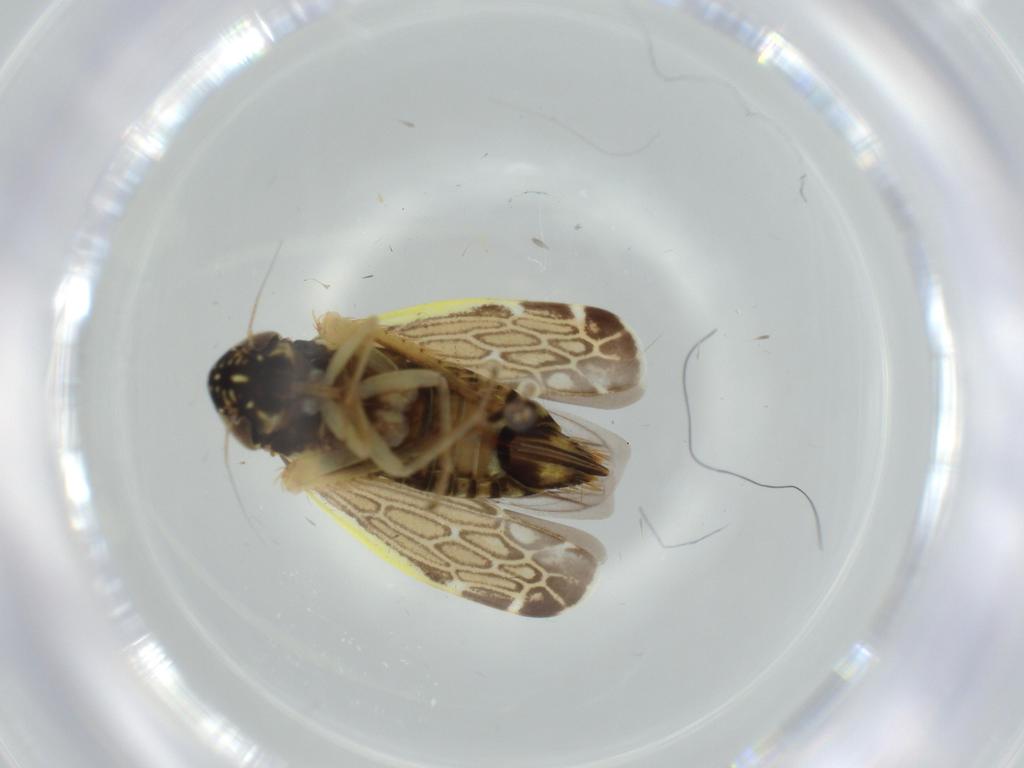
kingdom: Animalia
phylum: Arthropoda
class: Insecta
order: Hemiptera
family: Cicadellidae
